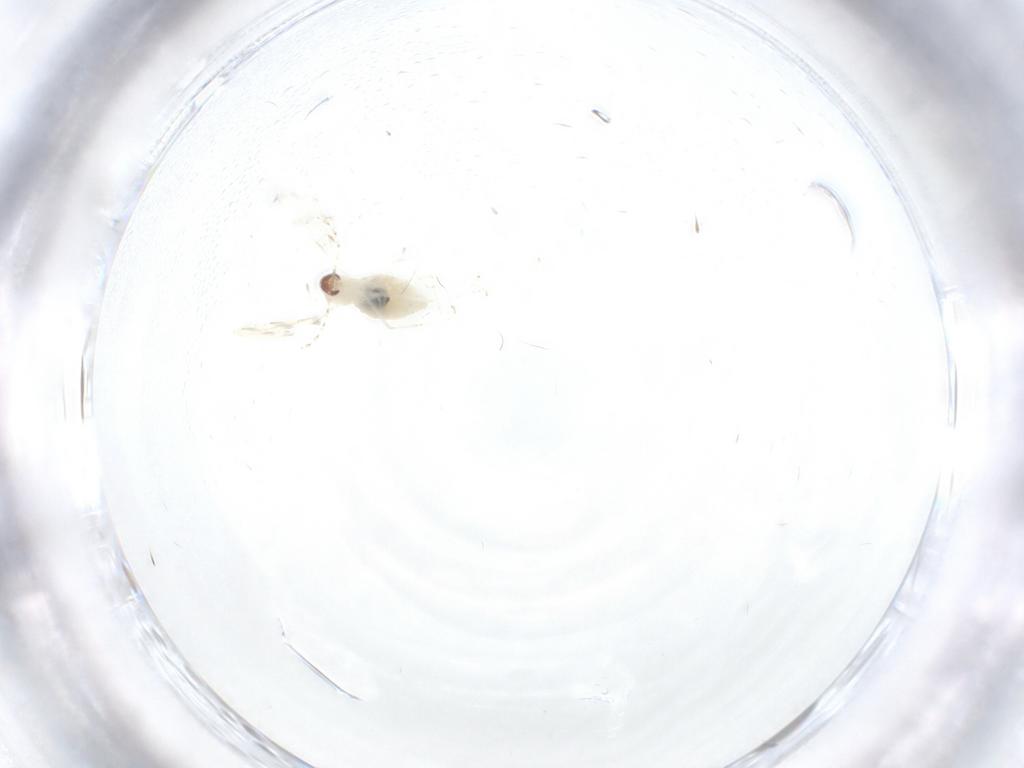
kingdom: Animalia
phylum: Arthropoda
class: Insecta
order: Diptera
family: Cecidomyiidae
